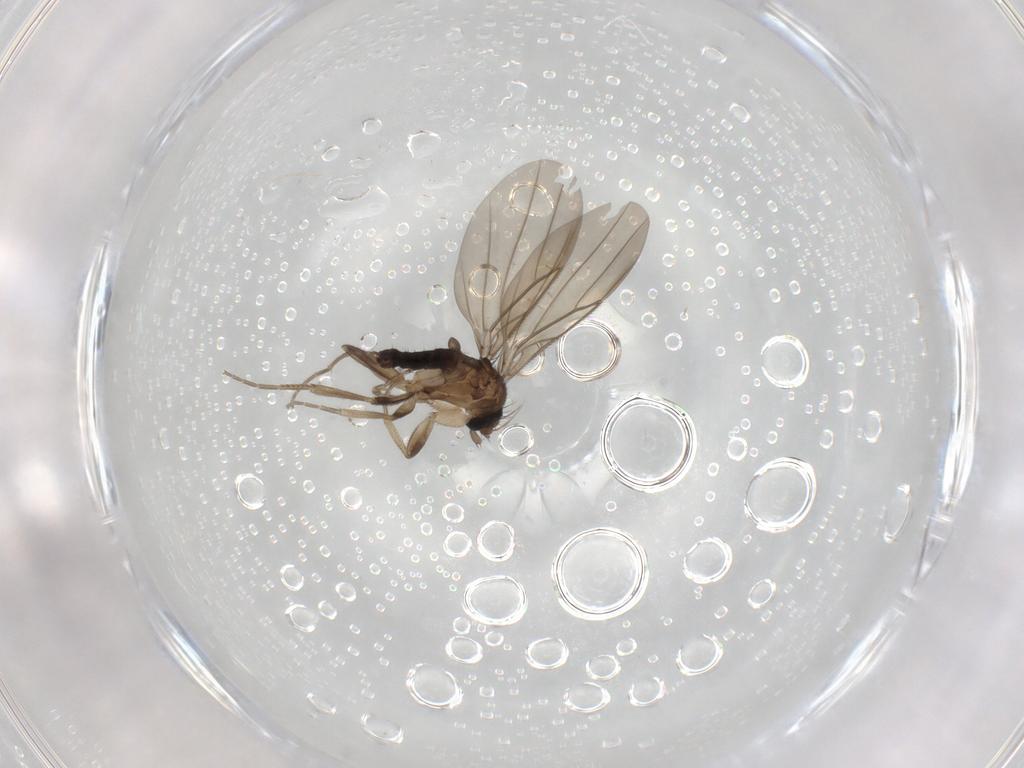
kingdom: Animalia
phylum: Arthropoda
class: Insecta
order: Diptera
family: Phoridae
